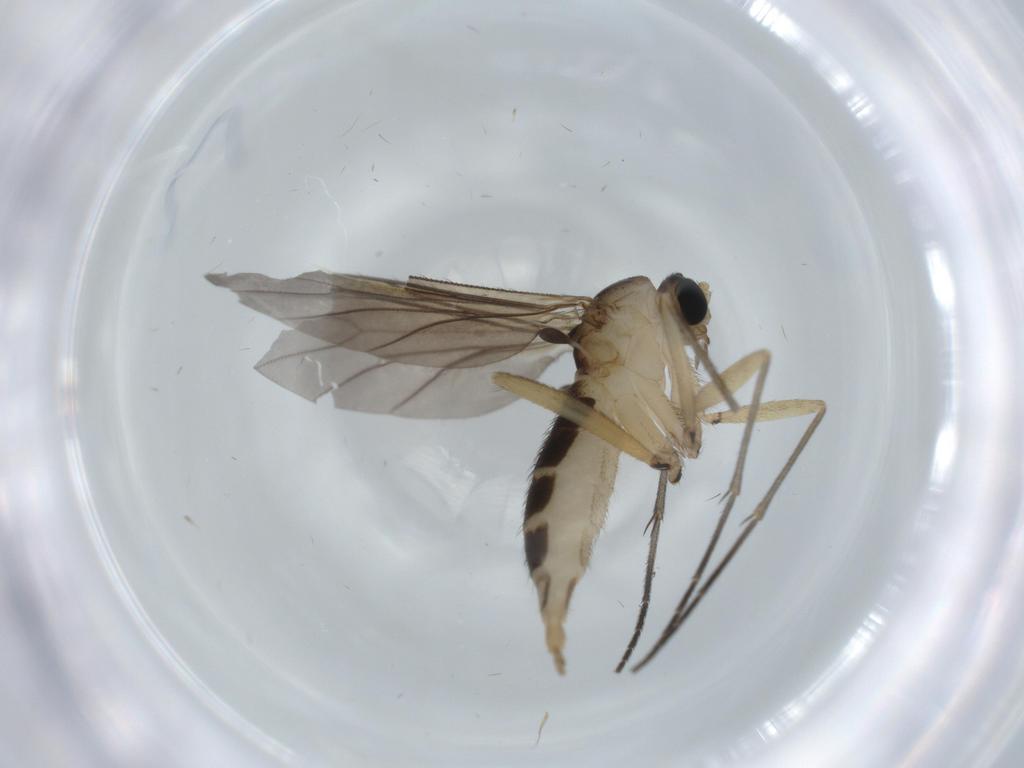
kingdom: Animalia
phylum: Arthropoda
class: Insecta
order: Diptera
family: Sciaridae
